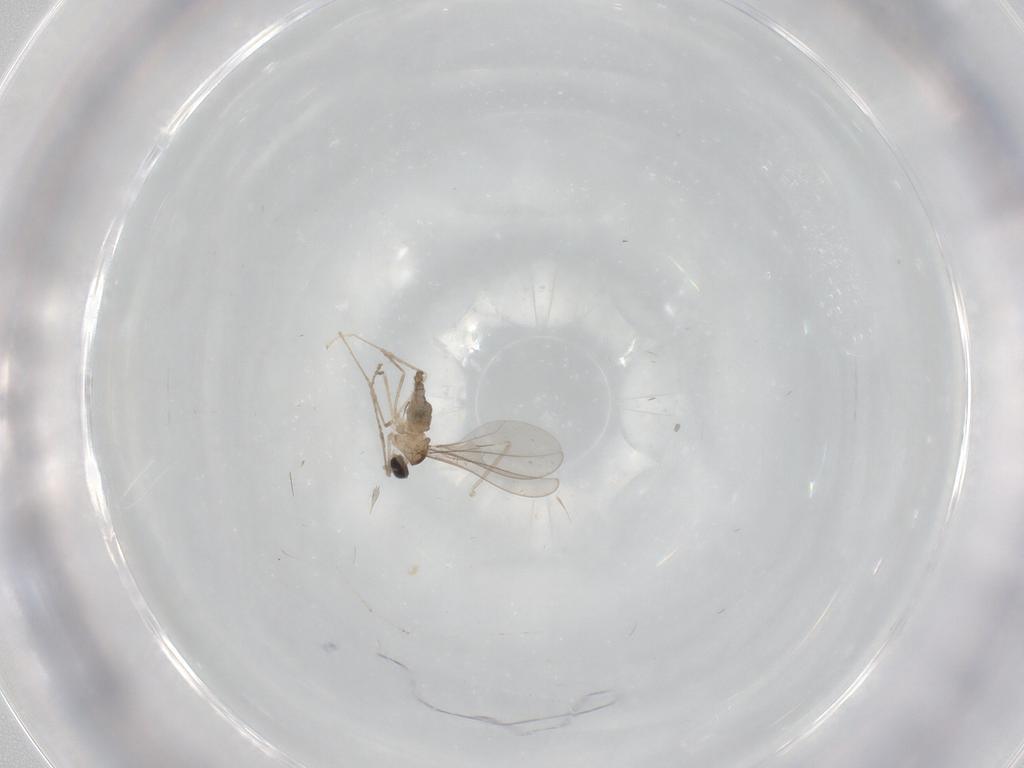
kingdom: Animalia
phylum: Arthropoda
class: Insecta
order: Diptera
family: Cecidomyiidae
